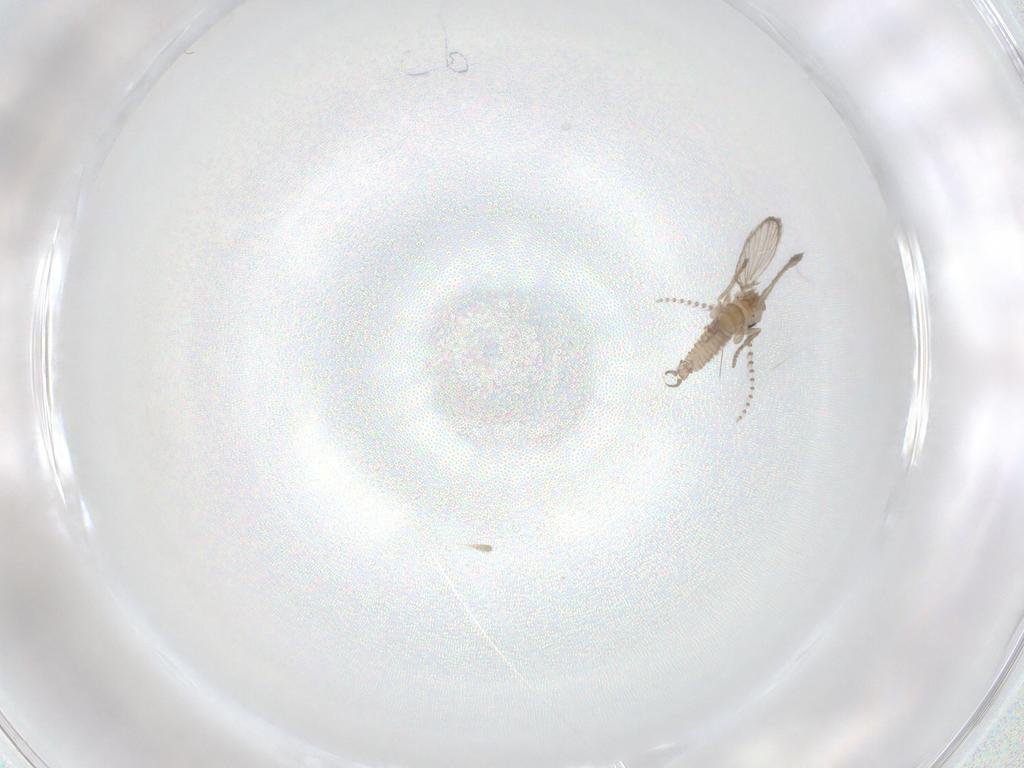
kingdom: Animalia
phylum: Arthropoda
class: Insecta
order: Diptera
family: Psychodidae
